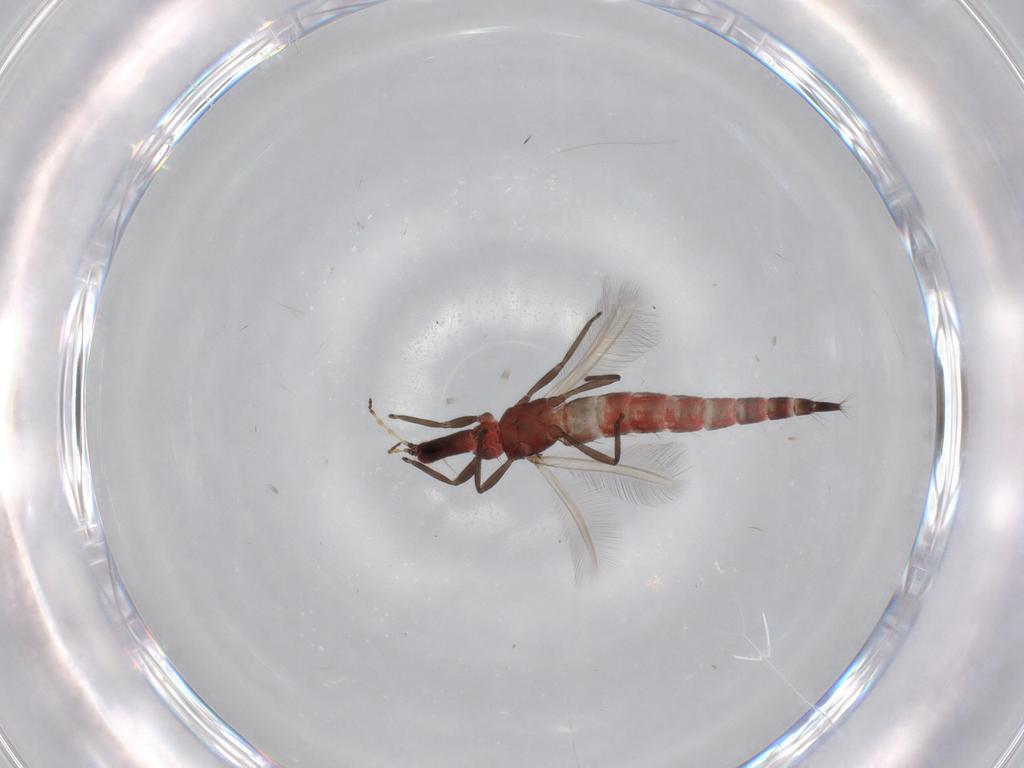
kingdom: Animalia
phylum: Arthropoda
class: Insecta
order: Thysanoptera
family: Phlaeothripidae
